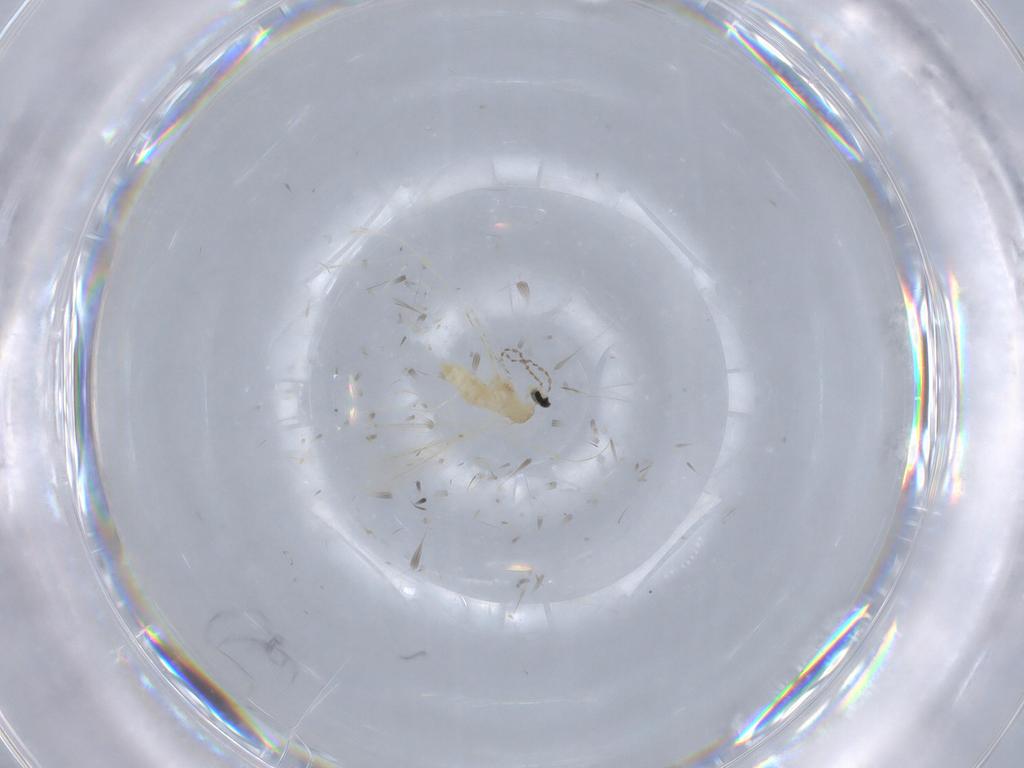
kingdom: Animalia
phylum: Arthropoda
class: Insecta
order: Diptera
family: Cecidomyiidae
